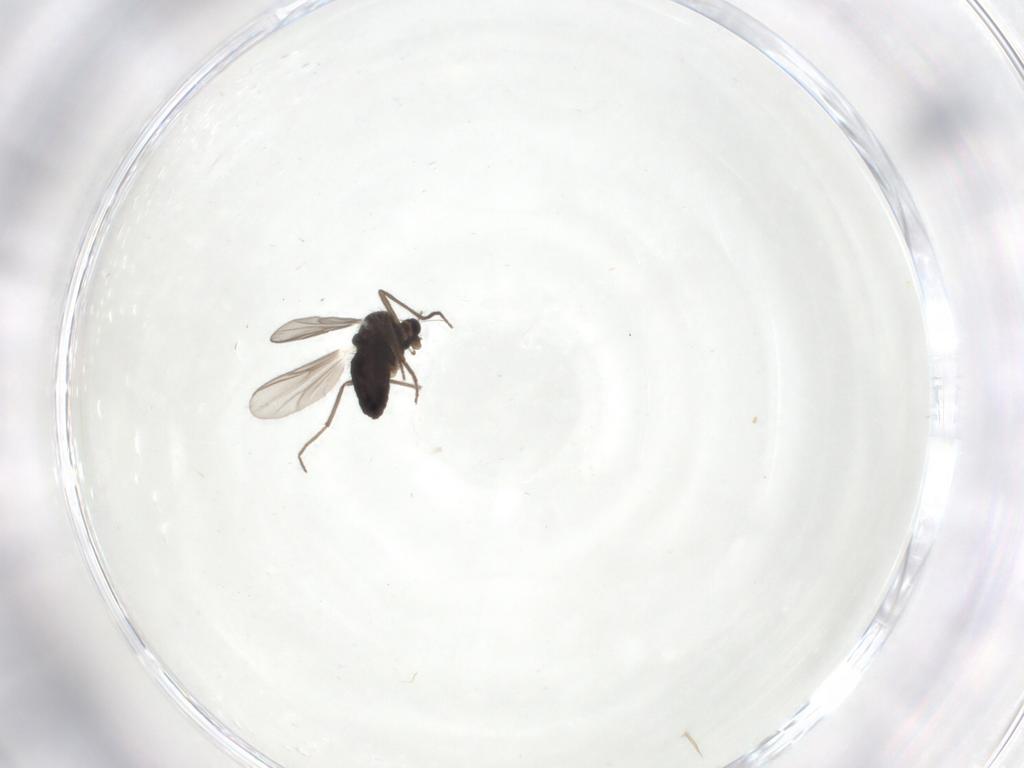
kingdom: Animalia
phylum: Arthropoda
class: Insecta
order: Diptera
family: Chironomidae
